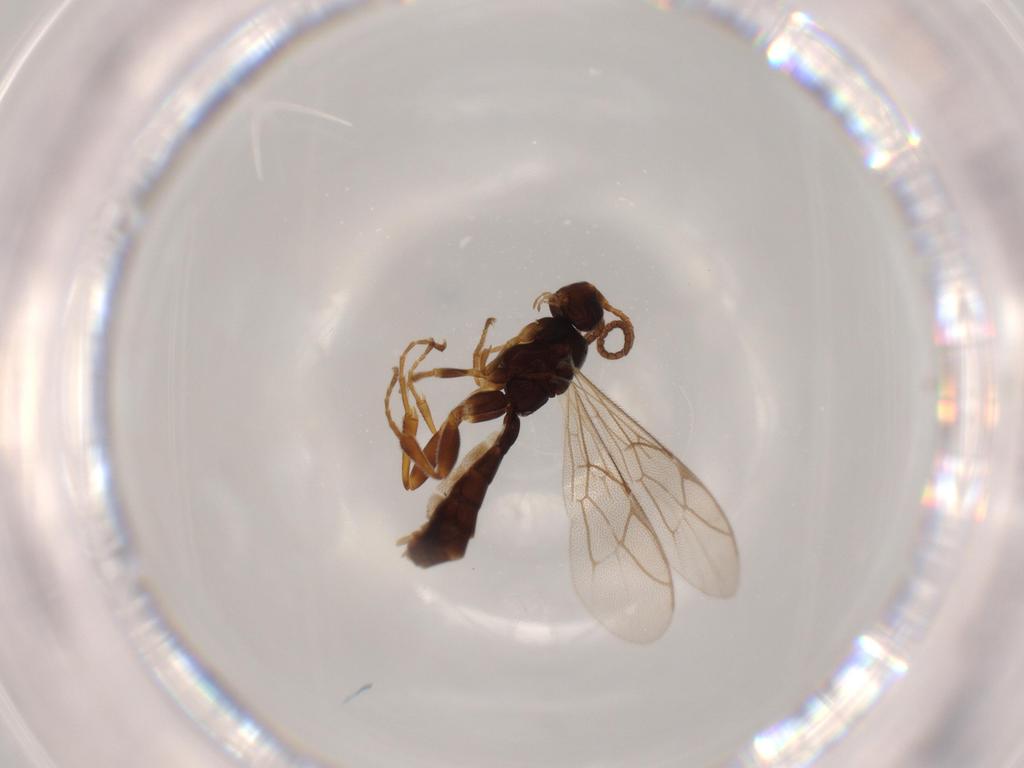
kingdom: Animalia
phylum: Arthropoda
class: Insecta
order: Hymenoptera
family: Ichneumonidae
